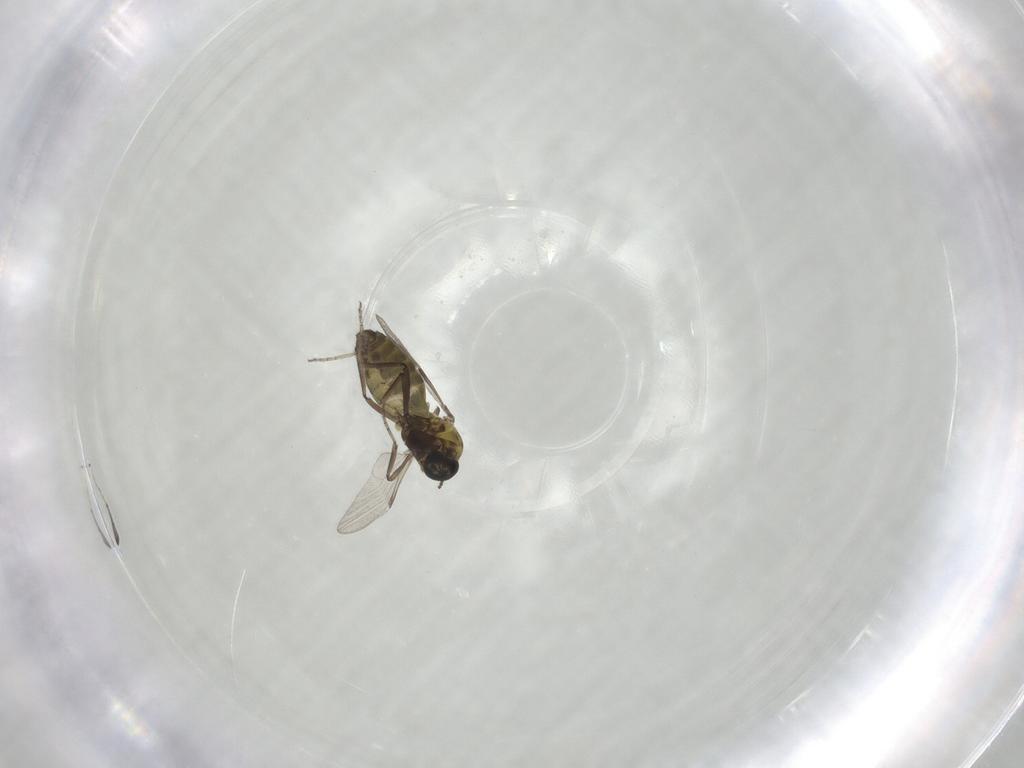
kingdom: Animalia
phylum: Arthropoda
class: Insecta
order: Diptera
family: Ceratopogonidae
